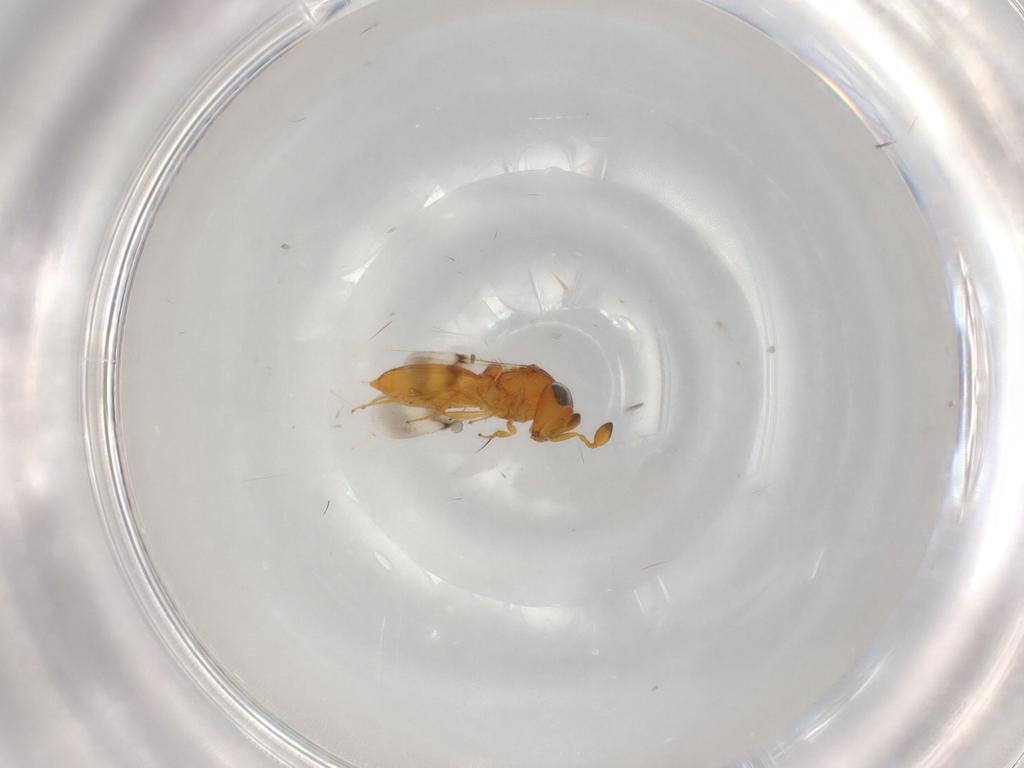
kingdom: Animalia
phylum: Arthropoda
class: Insecta
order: Hymenoptera
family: Scelionidae
